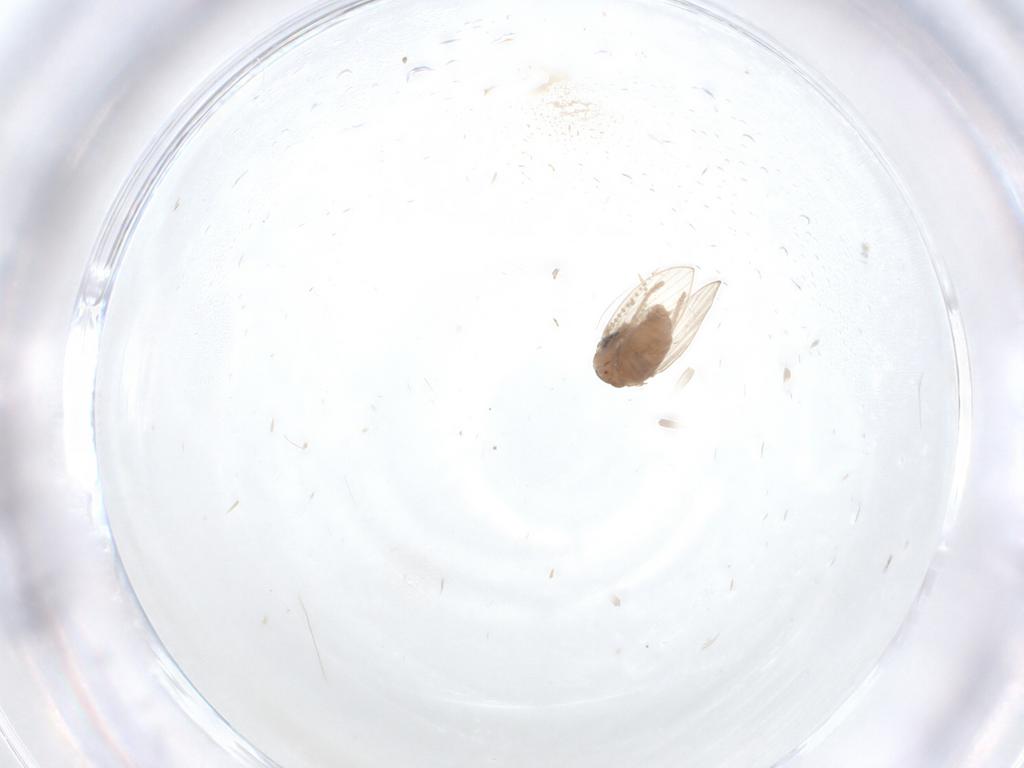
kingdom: Animalia
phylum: Arthropoda
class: Insecta
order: Diptera
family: Psychodidae
